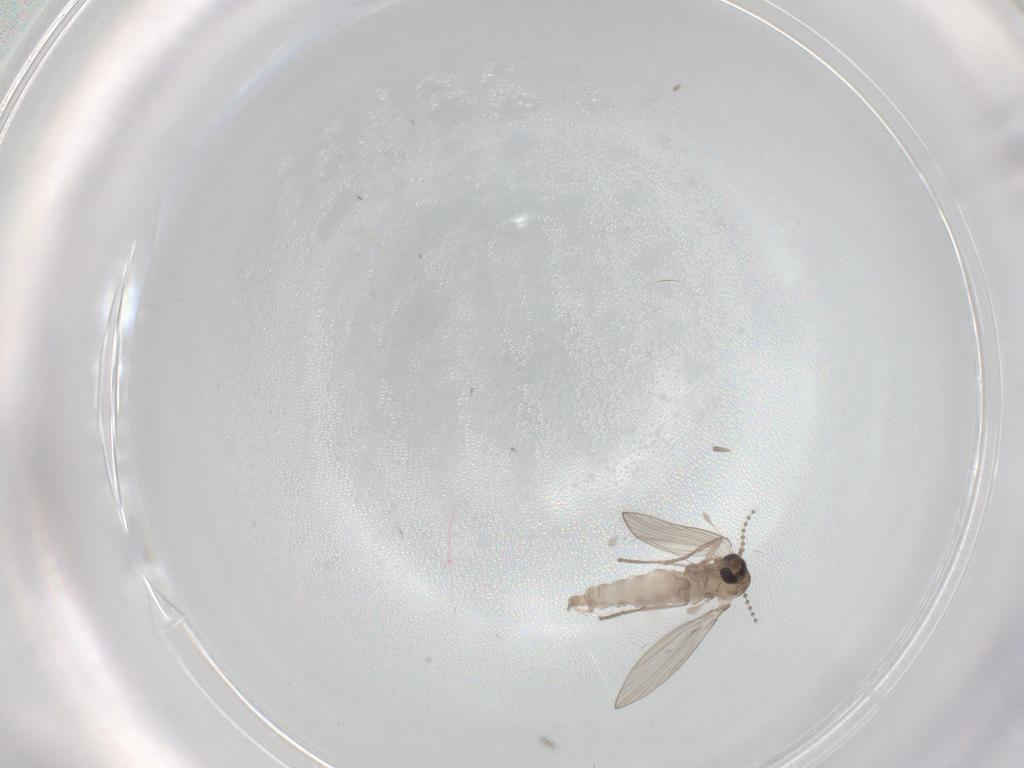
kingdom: Animalia
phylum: Arthropoda
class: Insecta
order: Diptera
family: Psychodidae
